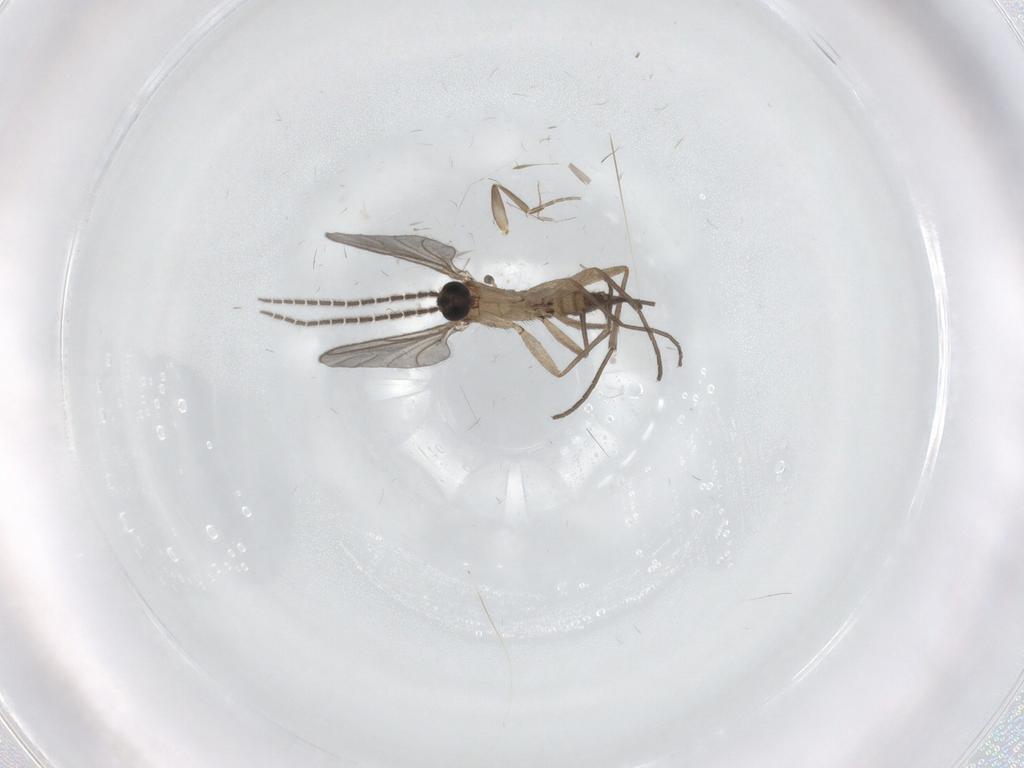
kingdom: Animalia
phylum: Arthropoda
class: Insecta
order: Diptera
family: Sciaridae
